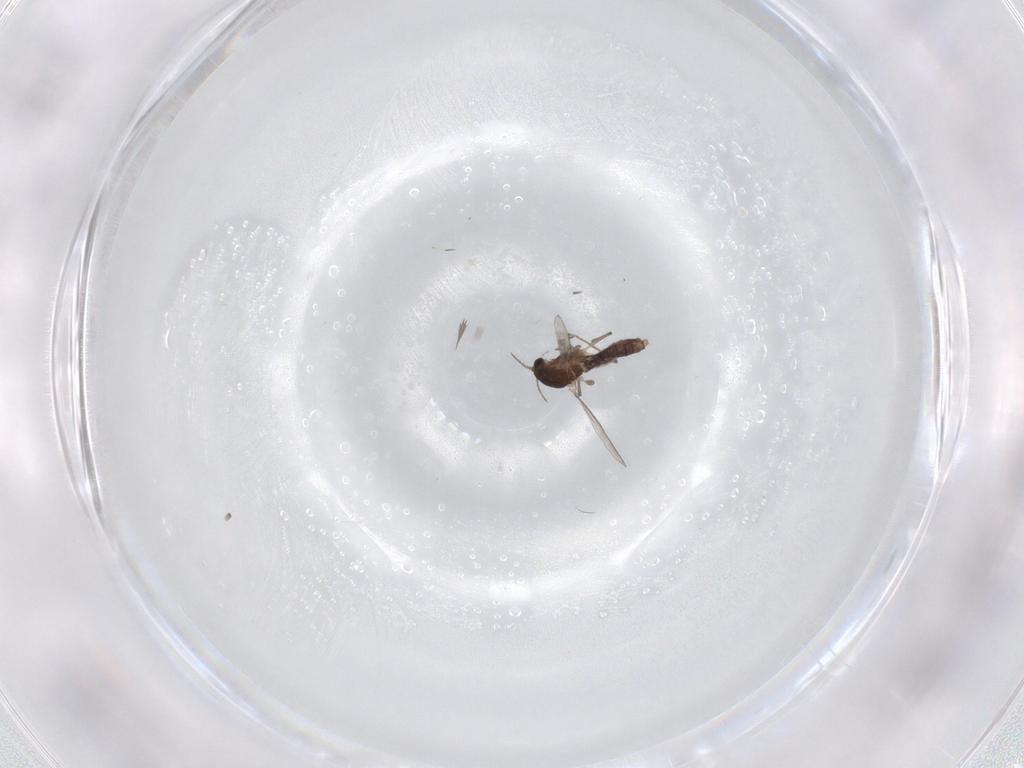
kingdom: Animalia
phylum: Arthropoda
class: Insecta
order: Diptera
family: Chironomidae
